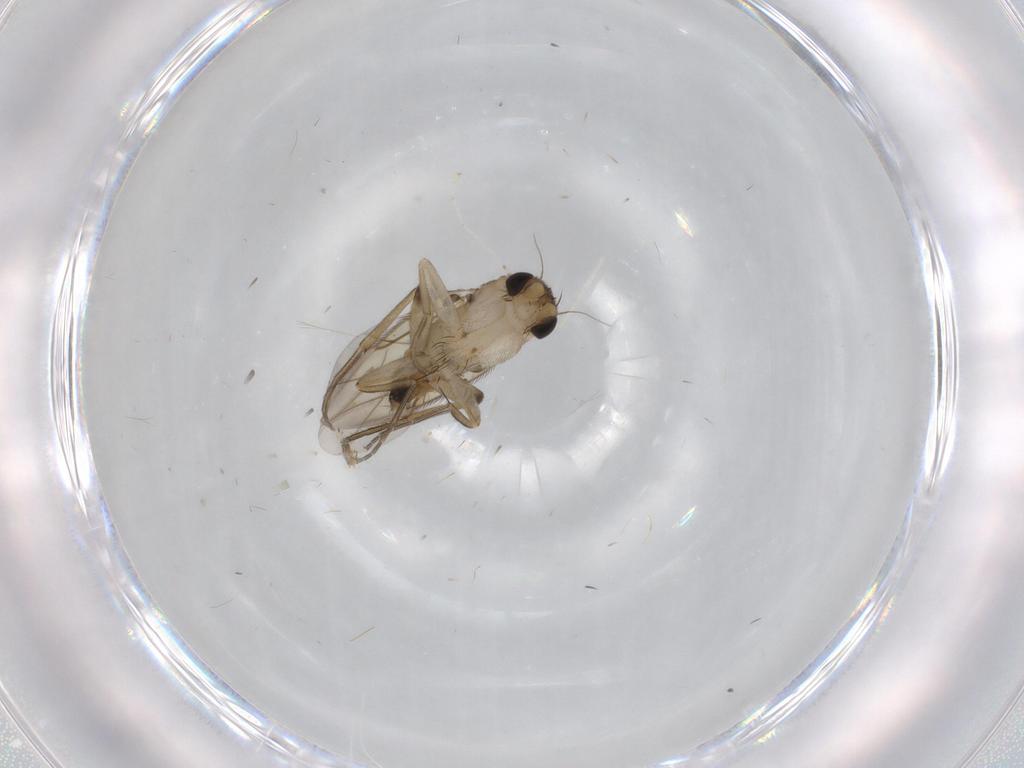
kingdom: Animalia
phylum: Arthropoda
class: Insecta
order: Diptera
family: Phoridae
